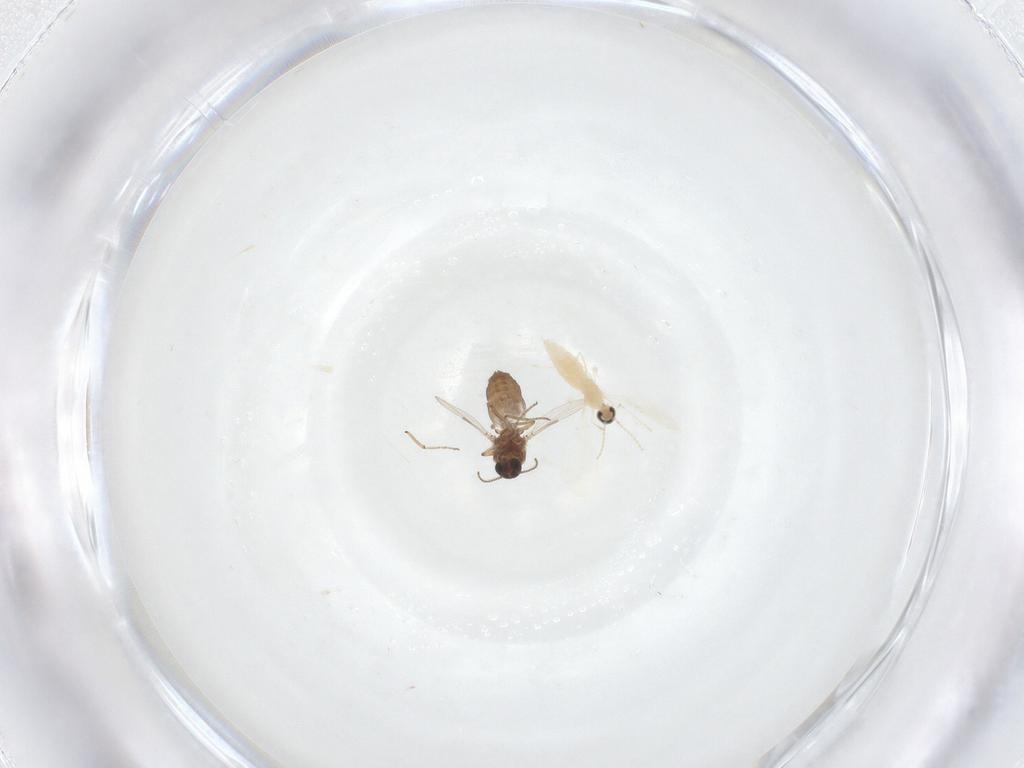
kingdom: Animalia
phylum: Arthropoda
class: Insecta
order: Diptera
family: Ceratopogonidae
